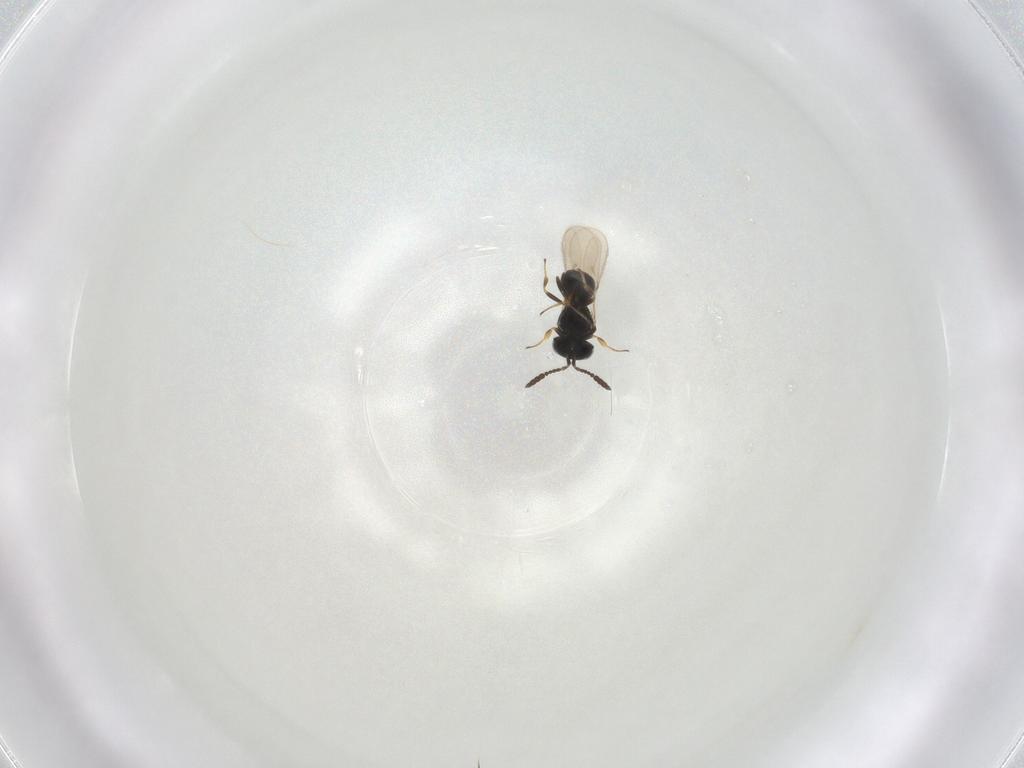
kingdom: Animalia
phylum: Arthropoda
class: Insecta
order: Hymenoptera
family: Scelionidae
